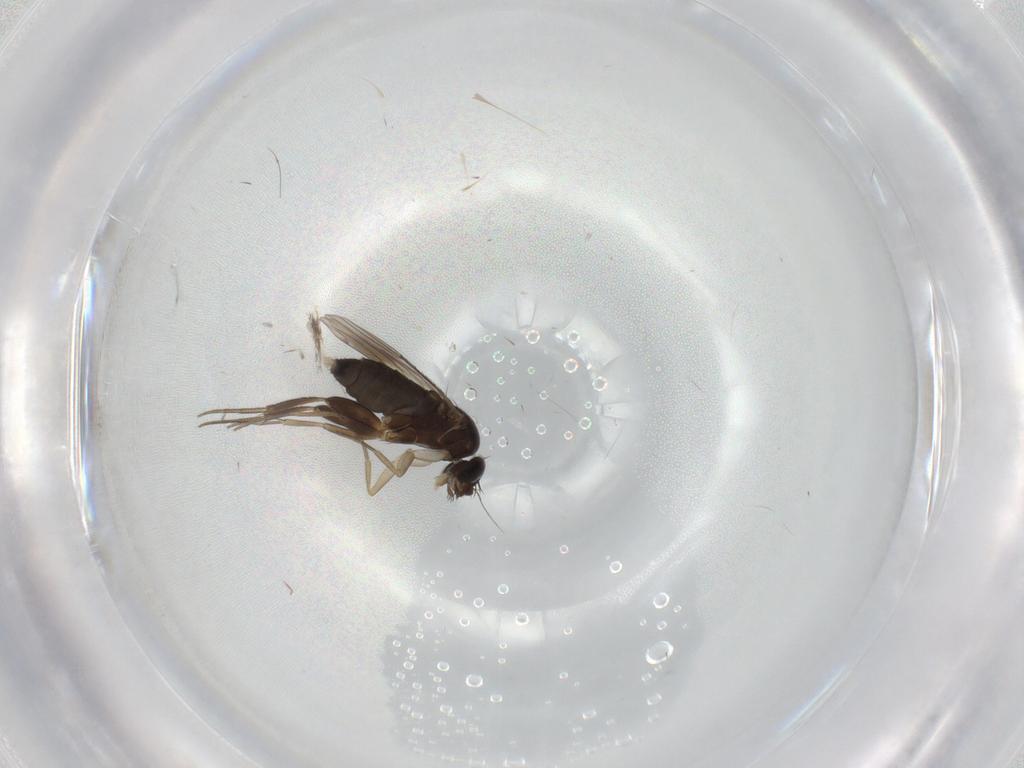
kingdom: Animalia
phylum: Arthropoda
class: Insecta
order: Diptera
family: Phoridae
